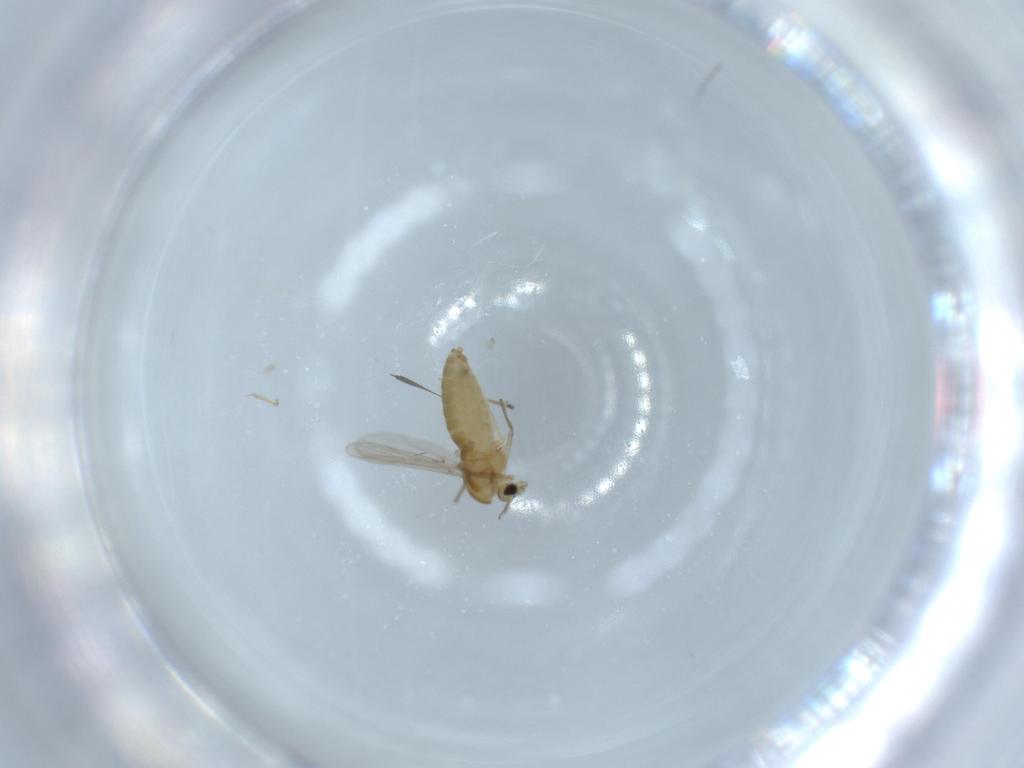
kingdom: Animalia
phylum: Arthropoda
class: Insecta
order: Diptera
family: Chironomidae
